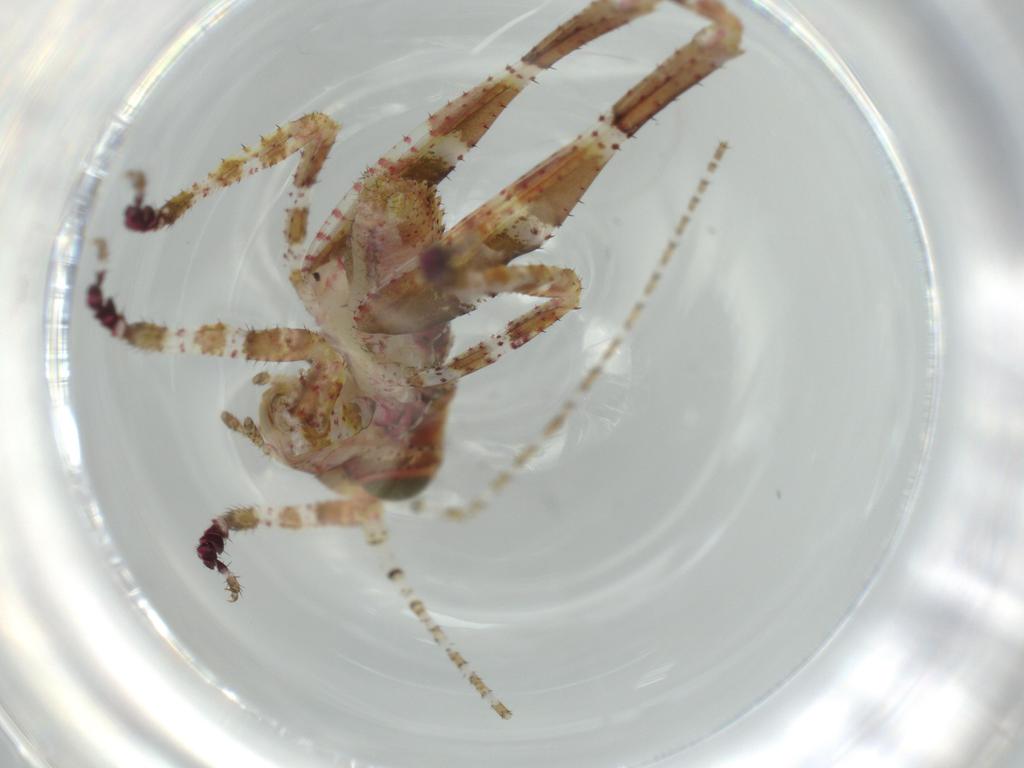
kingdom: Animalia
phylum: Arthropoda
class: Insecta
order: Orthoptera
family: Tettigoniidae
